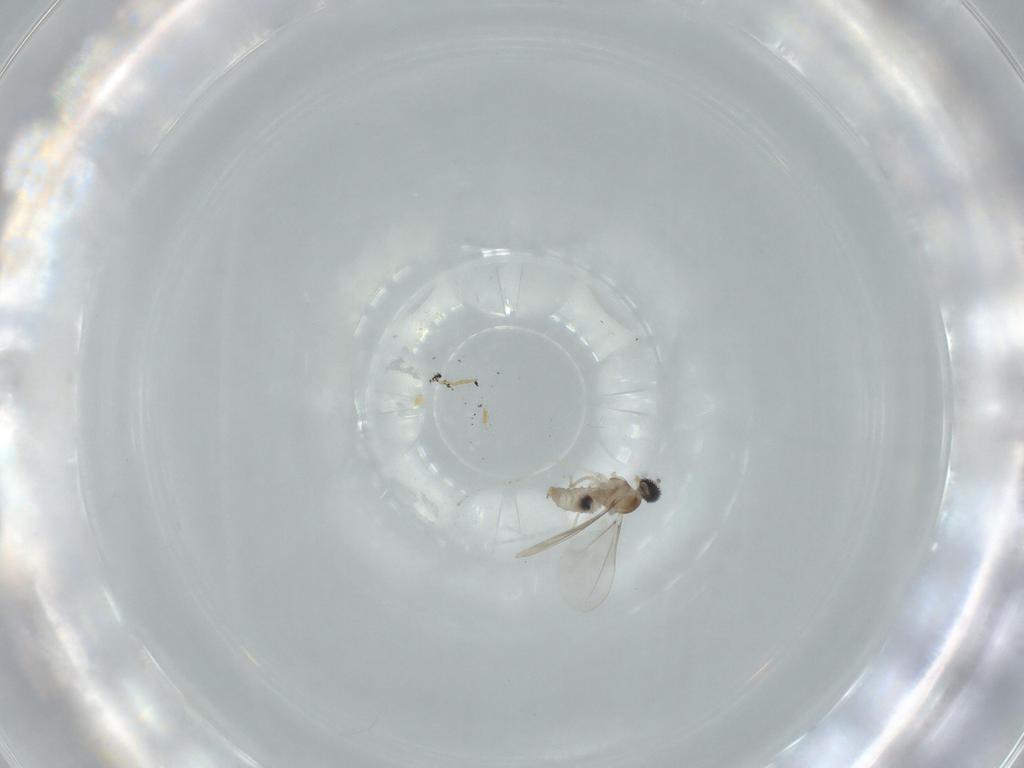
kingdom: Animalia
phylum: Arthropoda
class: Insecta
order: Diptera
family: Cecidomyiidae
